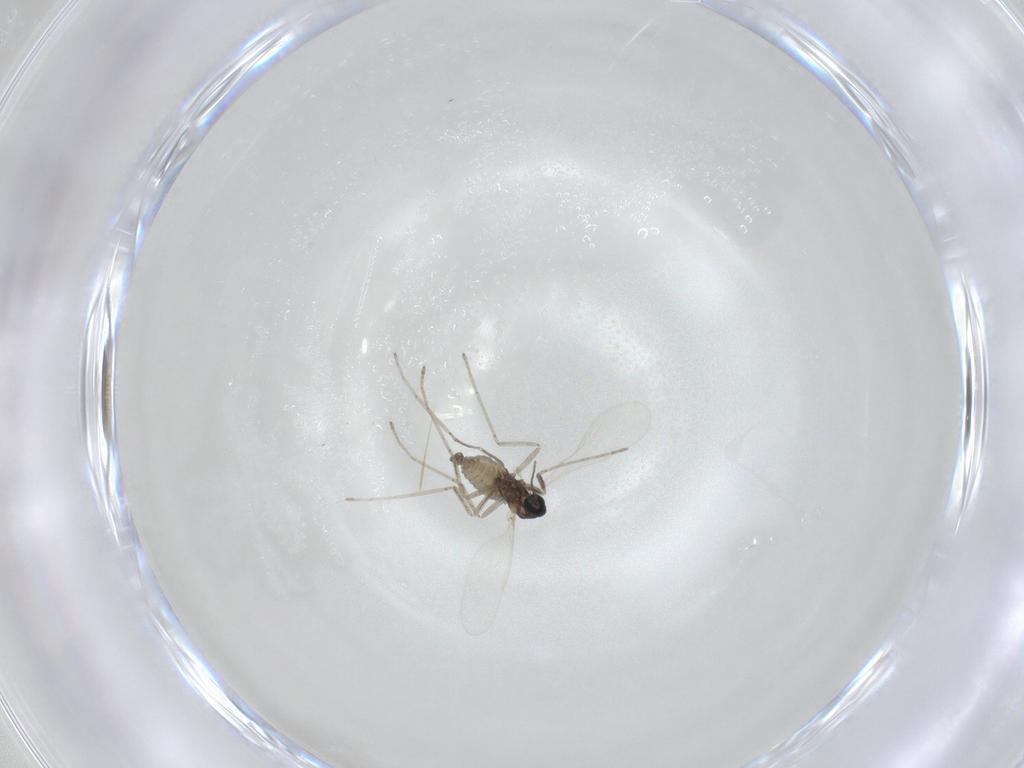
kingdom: Animalia
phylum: Arthropoda
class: Insecta
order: Diptera
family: Cecidomyiidae
